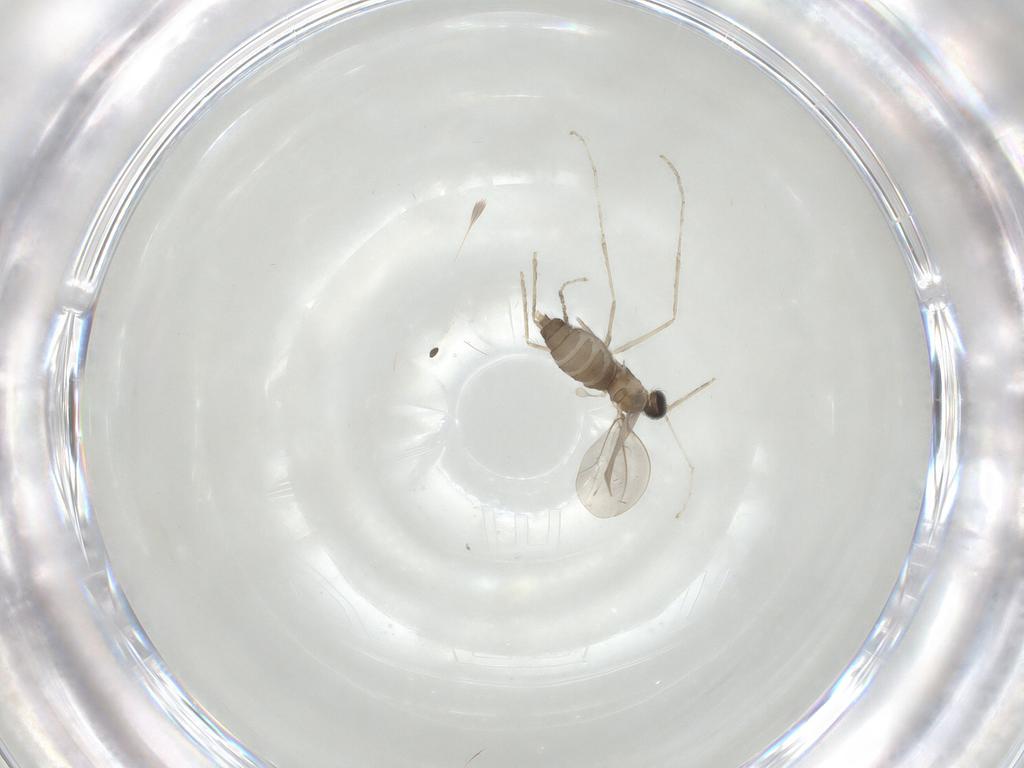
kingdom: Animalia
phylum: Arthropoda
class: Insecta
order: Diptera
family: Cecidomyiidae
